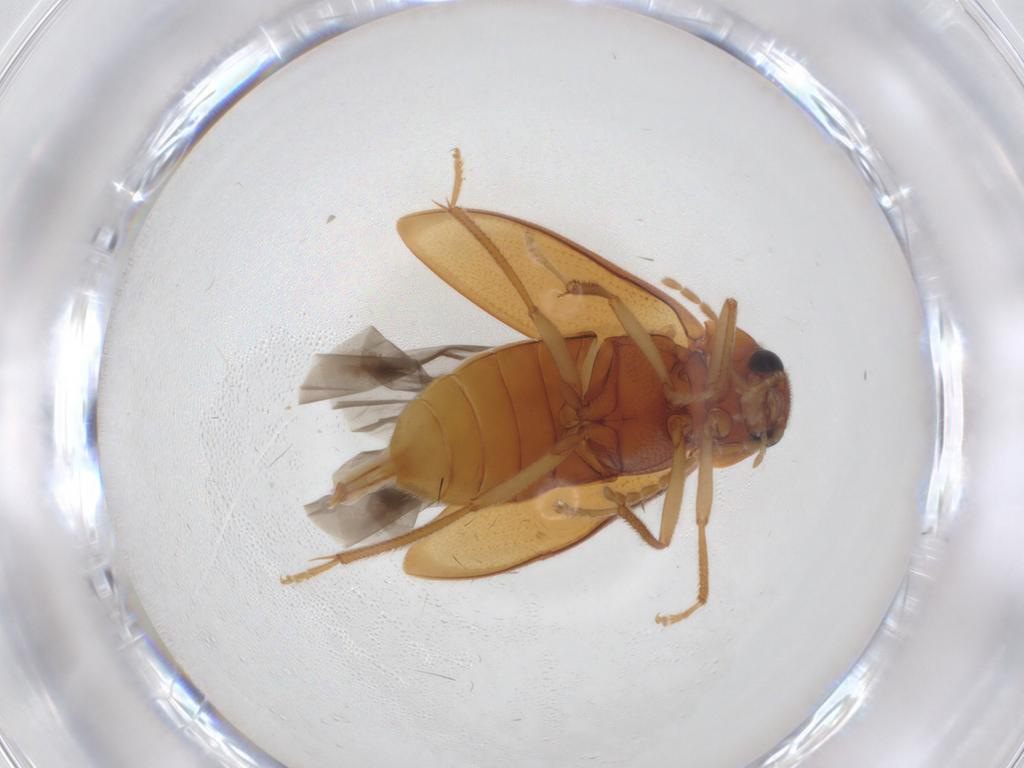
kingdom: Animalia
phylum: Arthropoda
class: Insecta
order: Coleoptera
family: Ptilodactylidae
